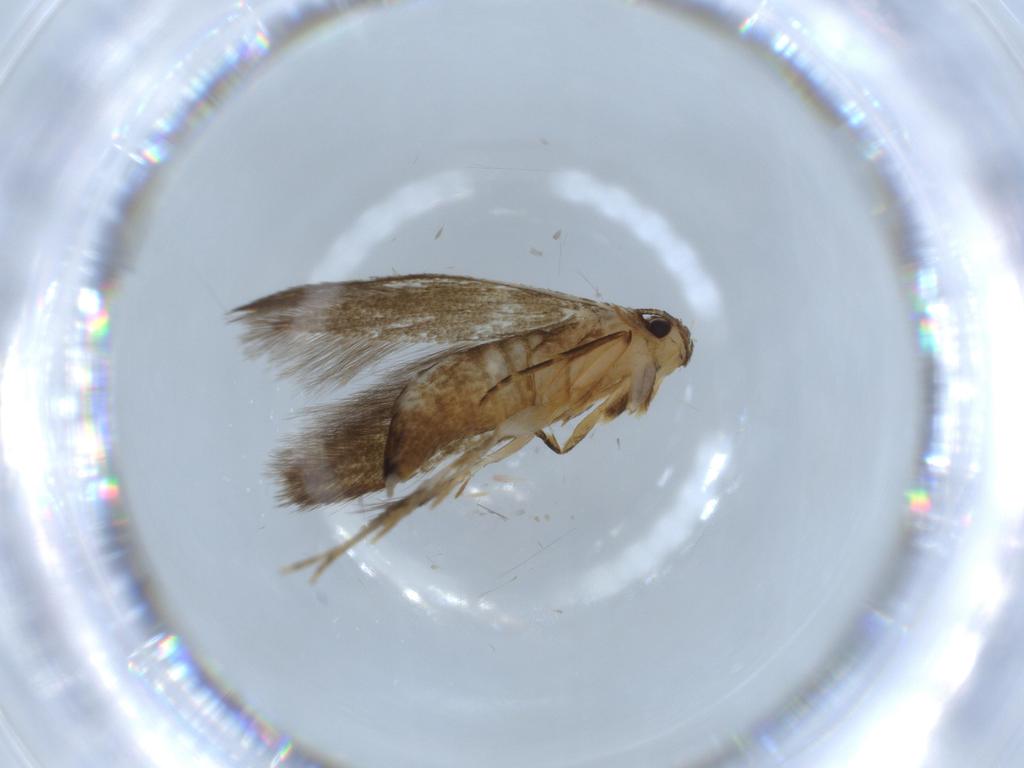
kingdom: Animalia
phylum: Arthropoda
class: Insecta
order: Lepidoptera
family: Tineidae
